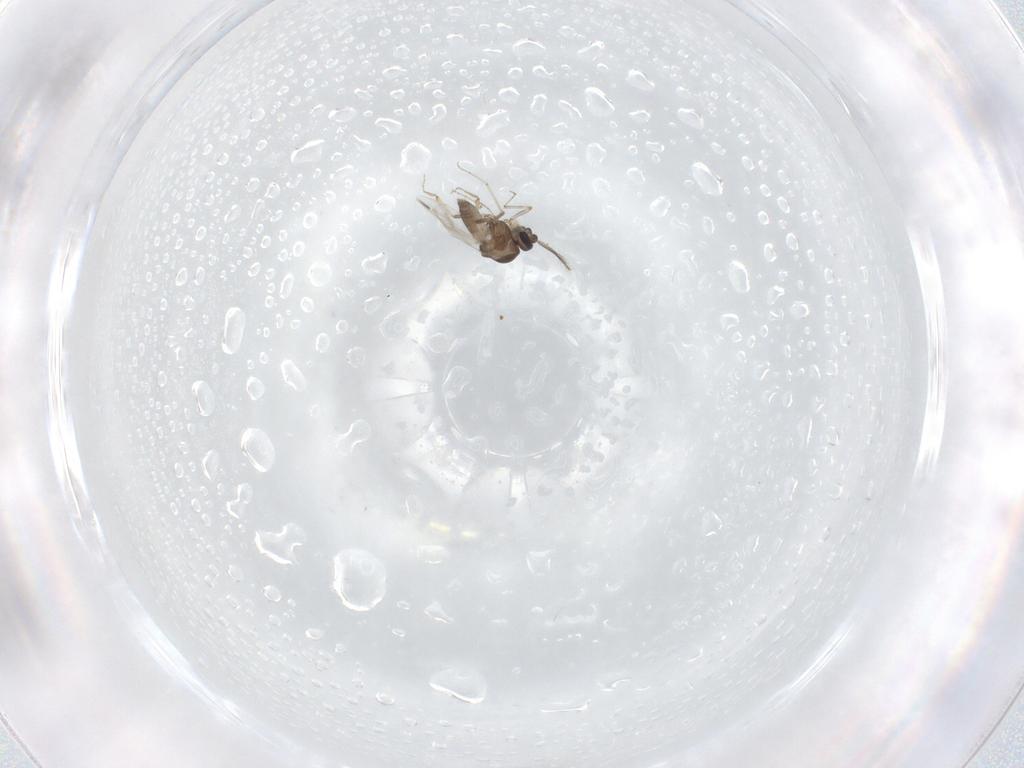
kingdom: Animalia
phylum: Arthropoda
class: Insecta
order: Diptera
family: Ceratopogonidae
